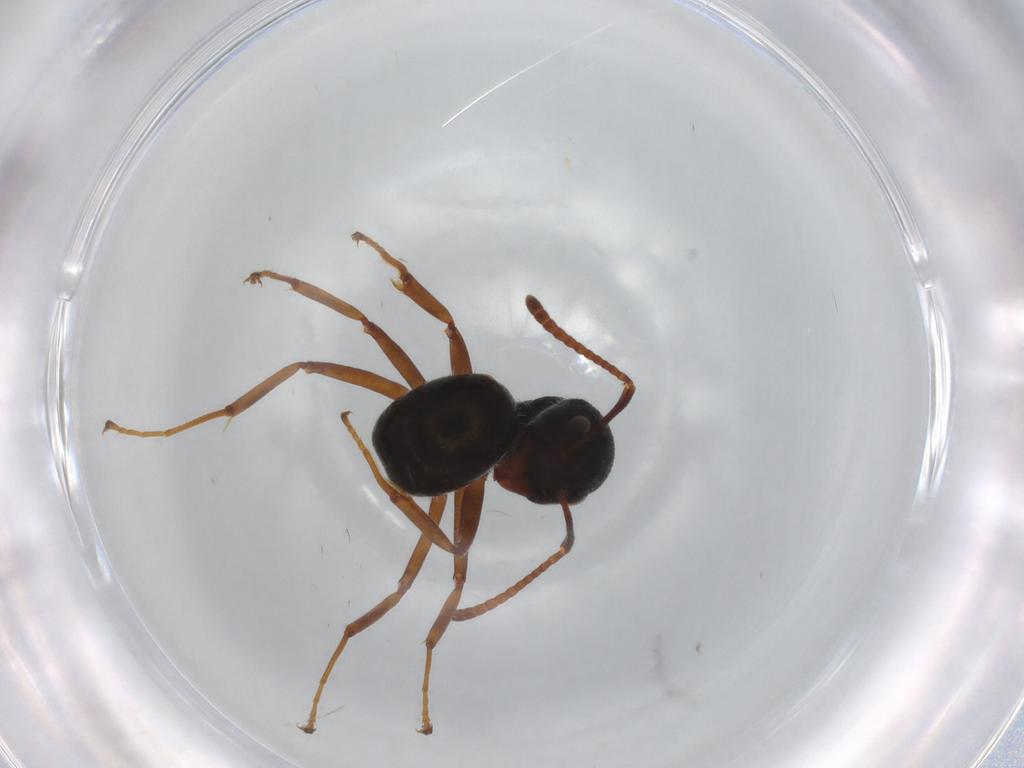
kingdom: Animalia
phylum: Arthropoda
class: Insecta
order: Hymenoptera
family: Formicidae
